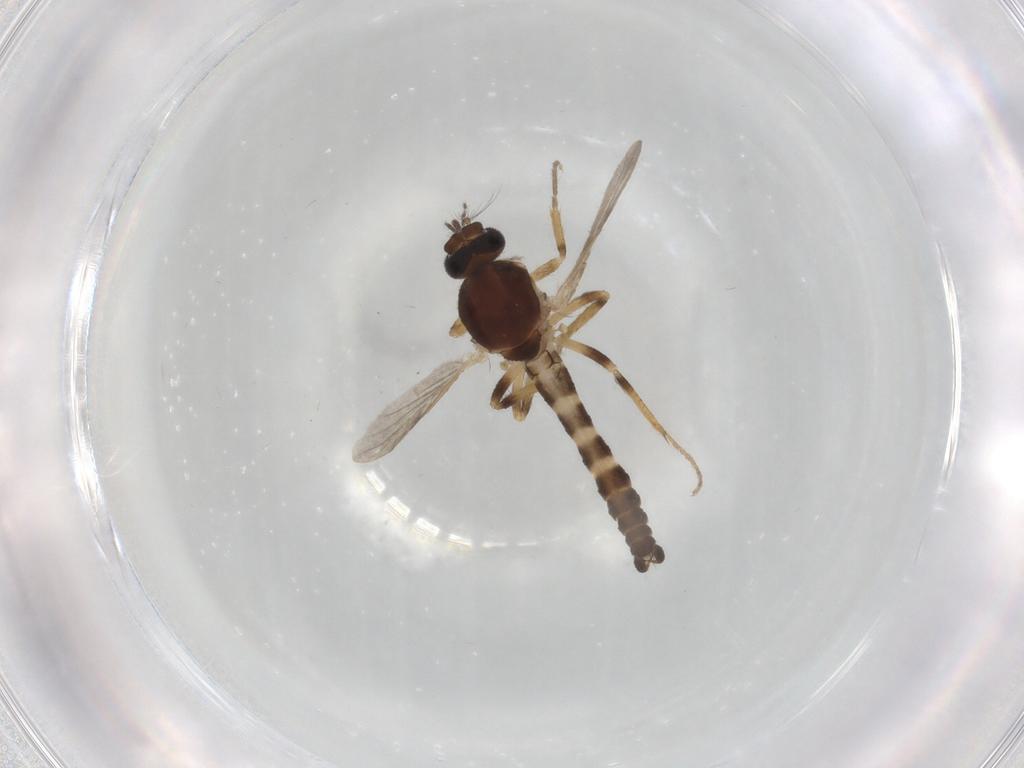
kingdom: Animalia
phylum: Arthropoda
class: Insecta
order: Diptera
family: Ceratopogonidae
